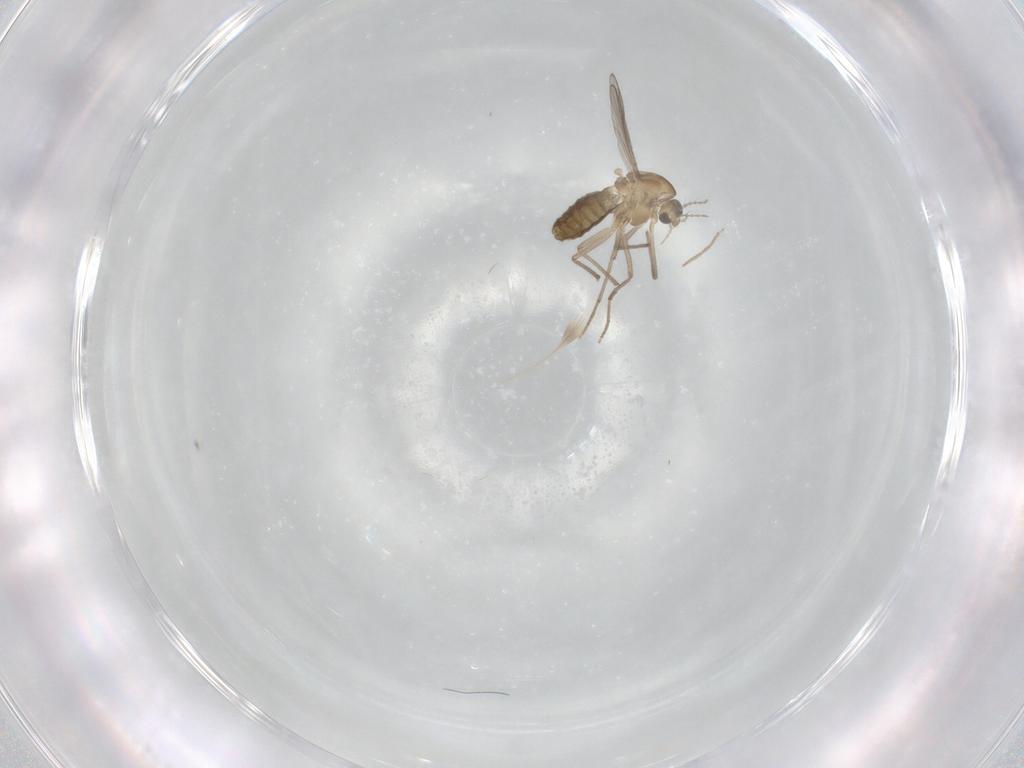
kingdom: Animalia
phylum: Arthropoda
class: Insecta
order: Diptera
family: Chironomidae
